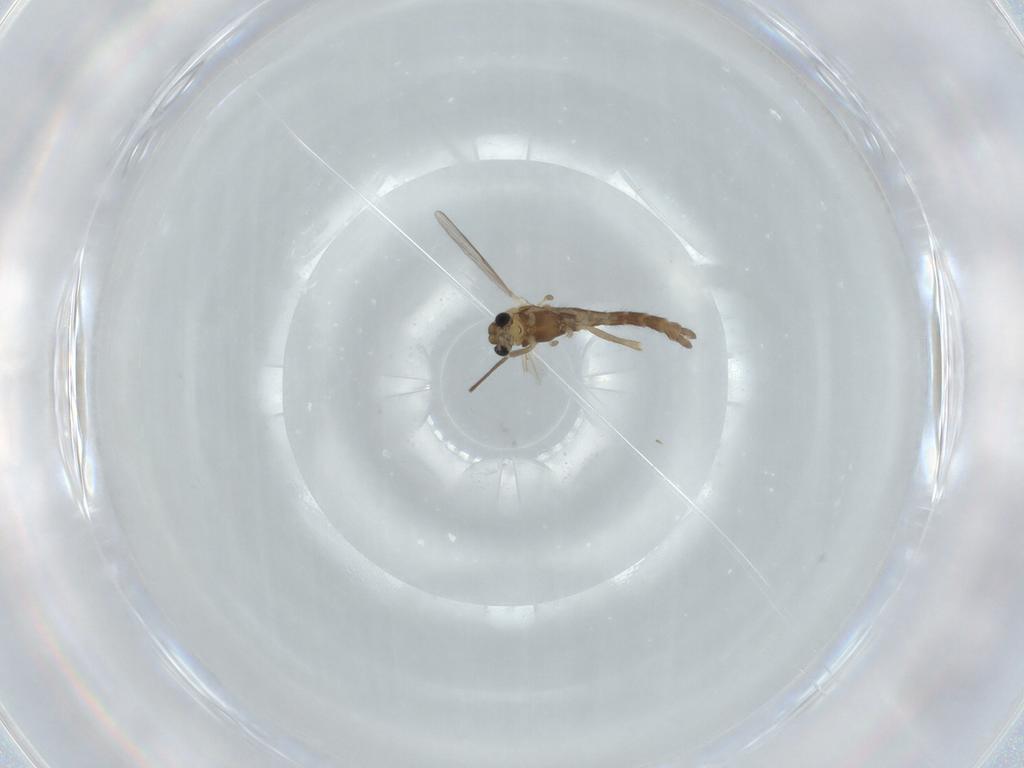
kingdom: Animalia
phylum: Arthropoda
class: Insecta
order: Diptera
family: Chironomidae
